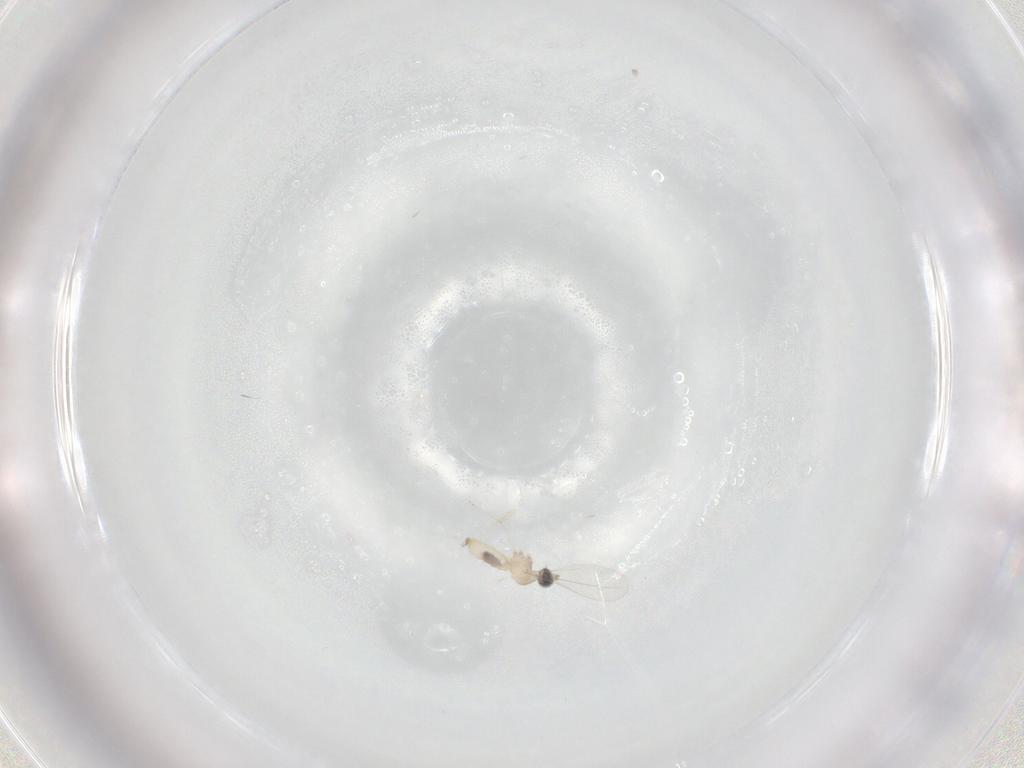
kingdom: Animalia
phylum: Arthropoda
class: Insecta
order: Diptera
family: Cecidomyiidae
